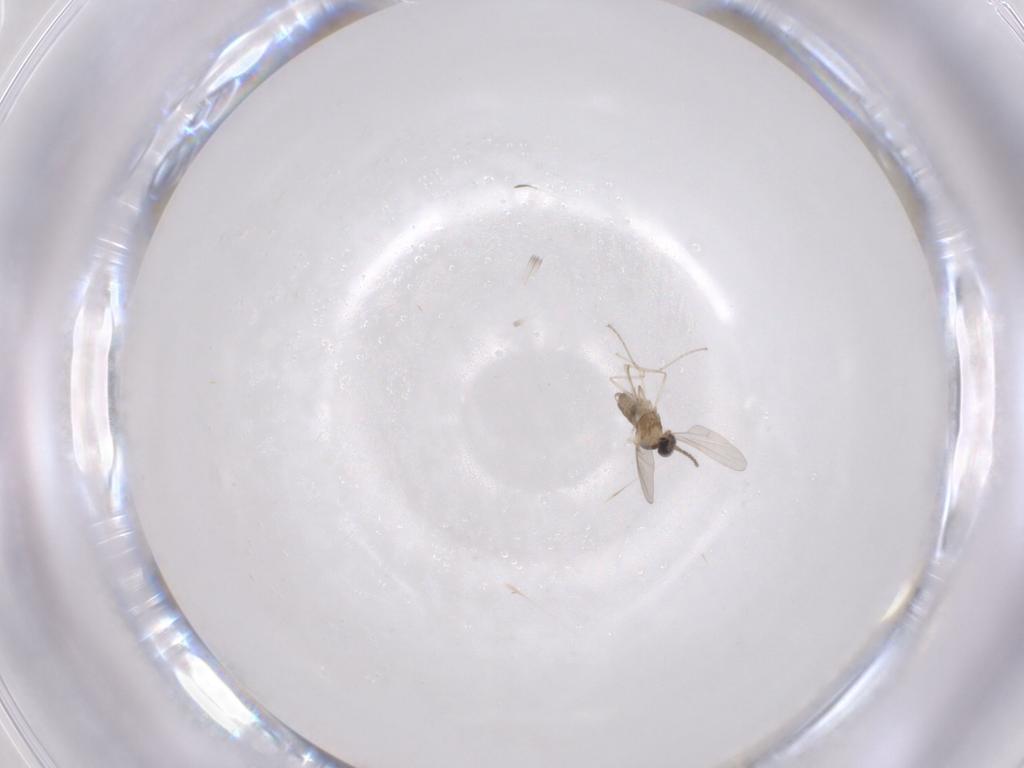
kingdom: Animalia
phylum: Arthropoda
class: Insecta
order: Diptera
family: Cecidomyiidae
